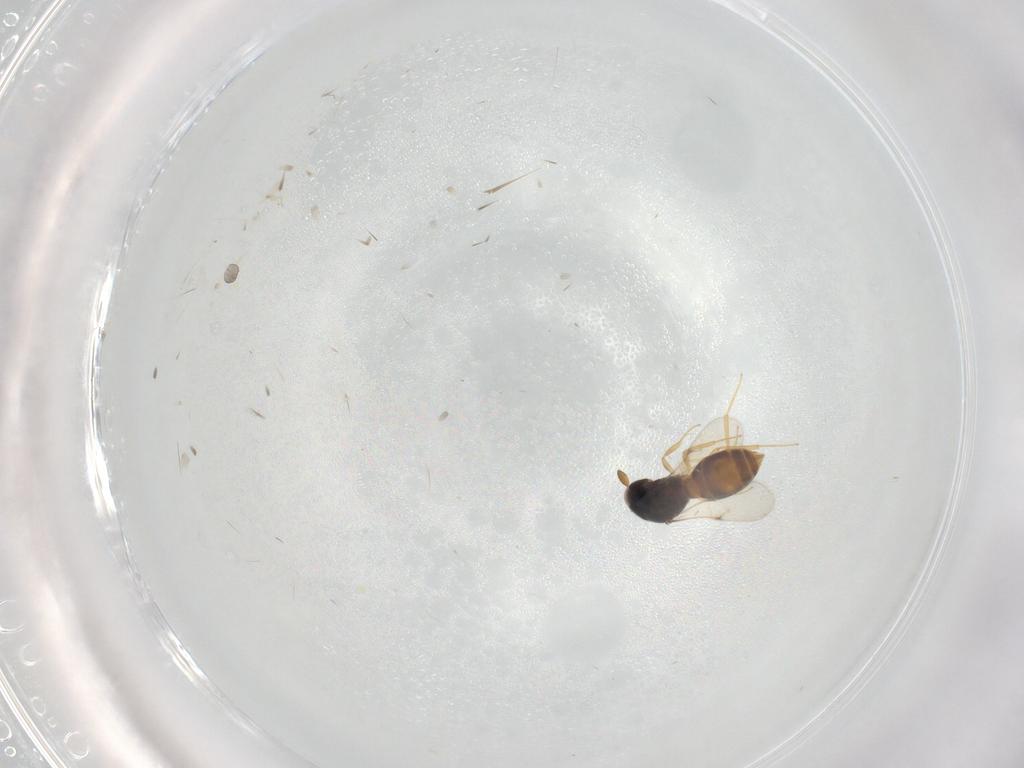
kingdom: Animalia
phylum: Arthropoda
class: Insecta
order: Hymenoptera
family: Scelionidae
